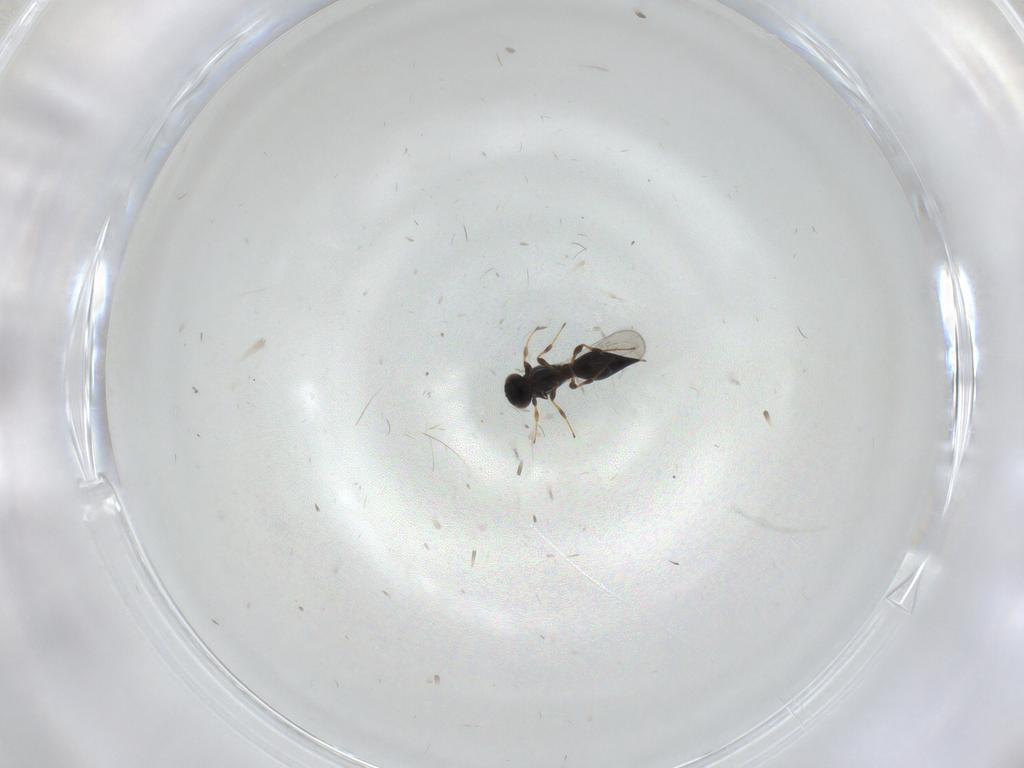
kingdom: Animalia
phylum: Arthropoda
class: Insecta
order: Hymenoptera
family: Platygastridae
